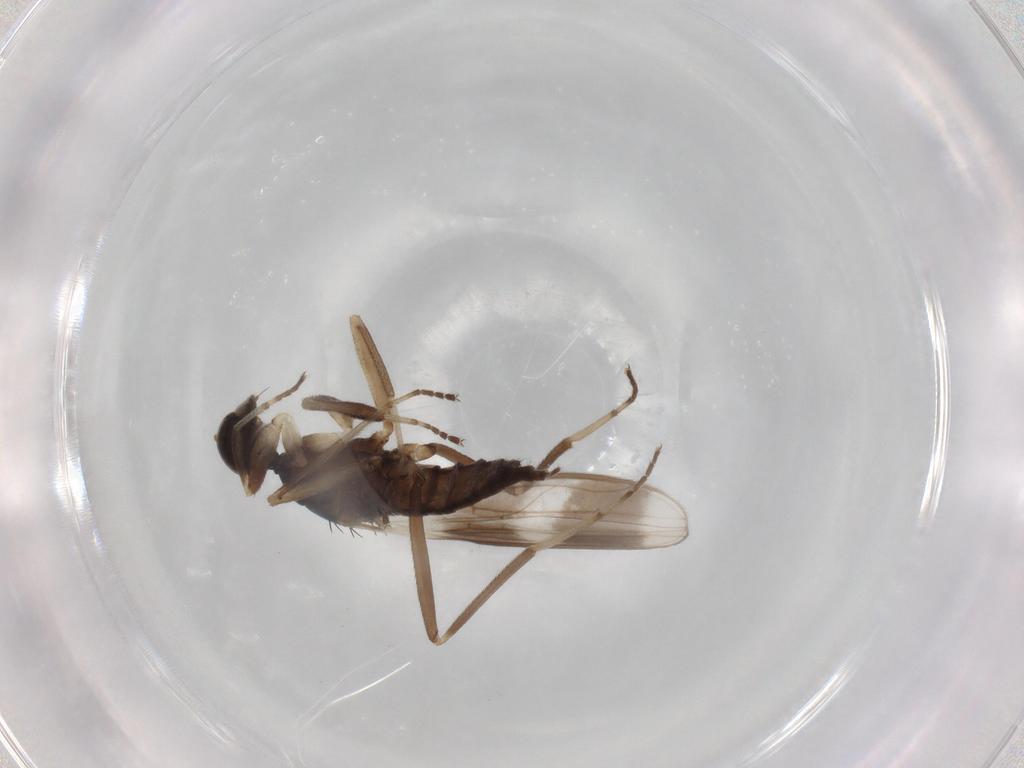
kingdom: Animalia
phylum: Arthropoda
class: Insecta
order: Diptera
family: Hybotidae
